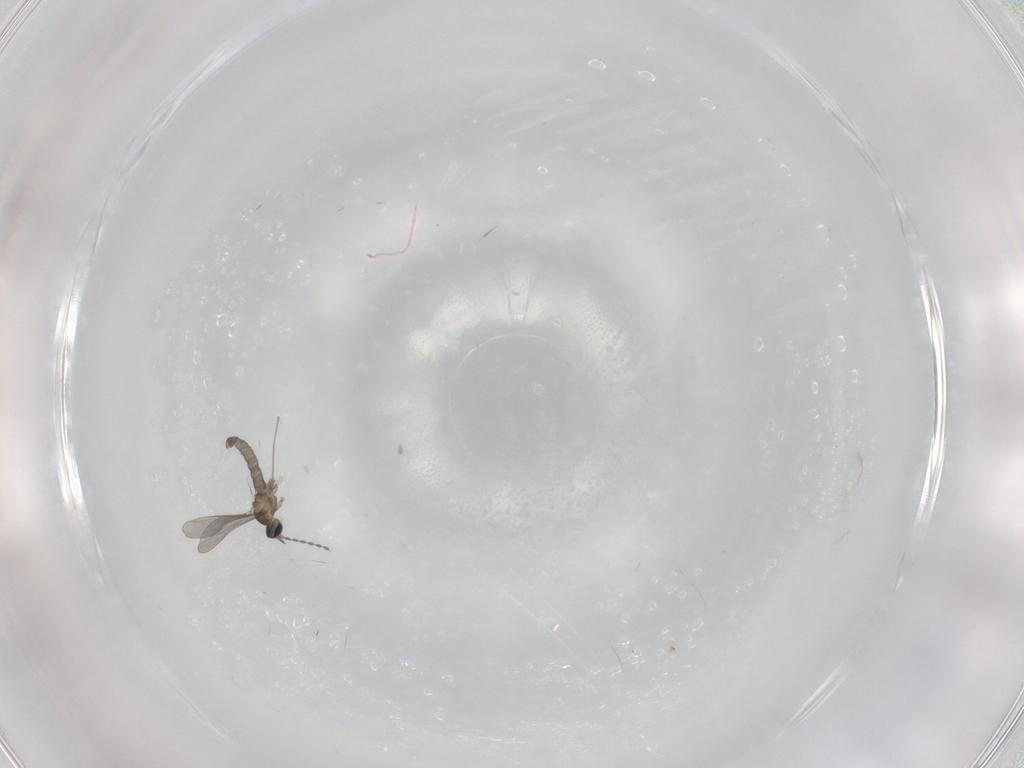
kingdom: Animalia
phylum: Arthropoda
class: Insecta
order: Diptera
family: Cecidomyiidae
